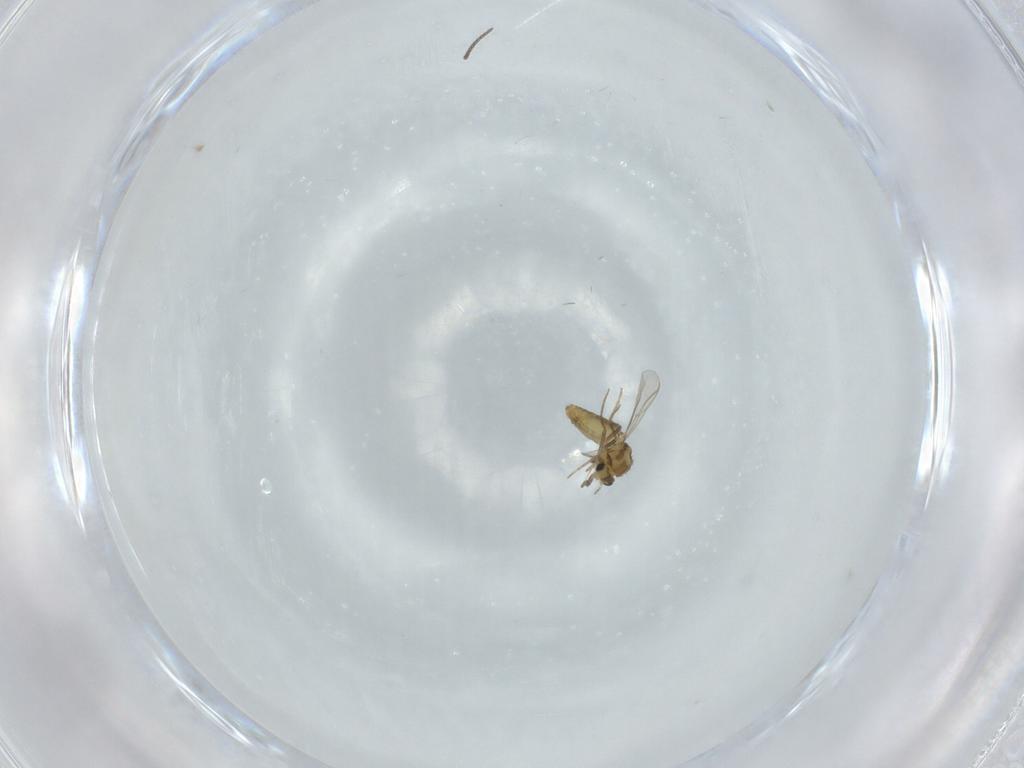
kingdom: Animalia
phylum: Arthropoda
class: Insecta
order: Diptera
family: Chironomidae
